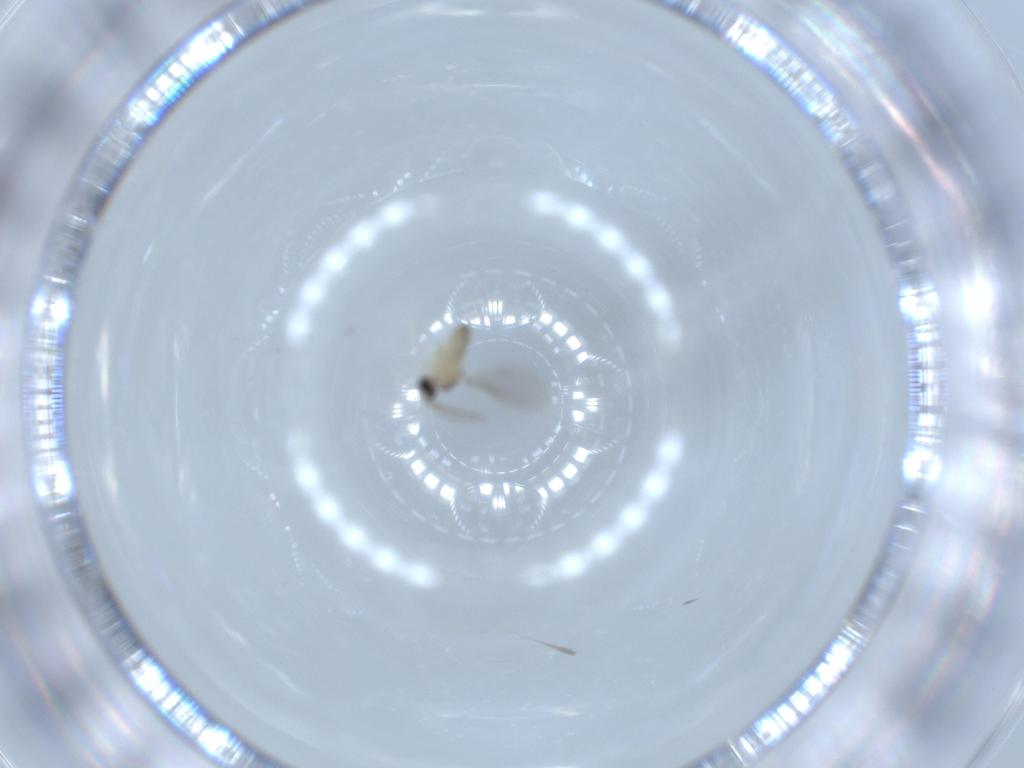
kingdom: Animalia
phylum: Arthropoda
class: Insecta
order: Diptera
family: Cecidomyiidae
